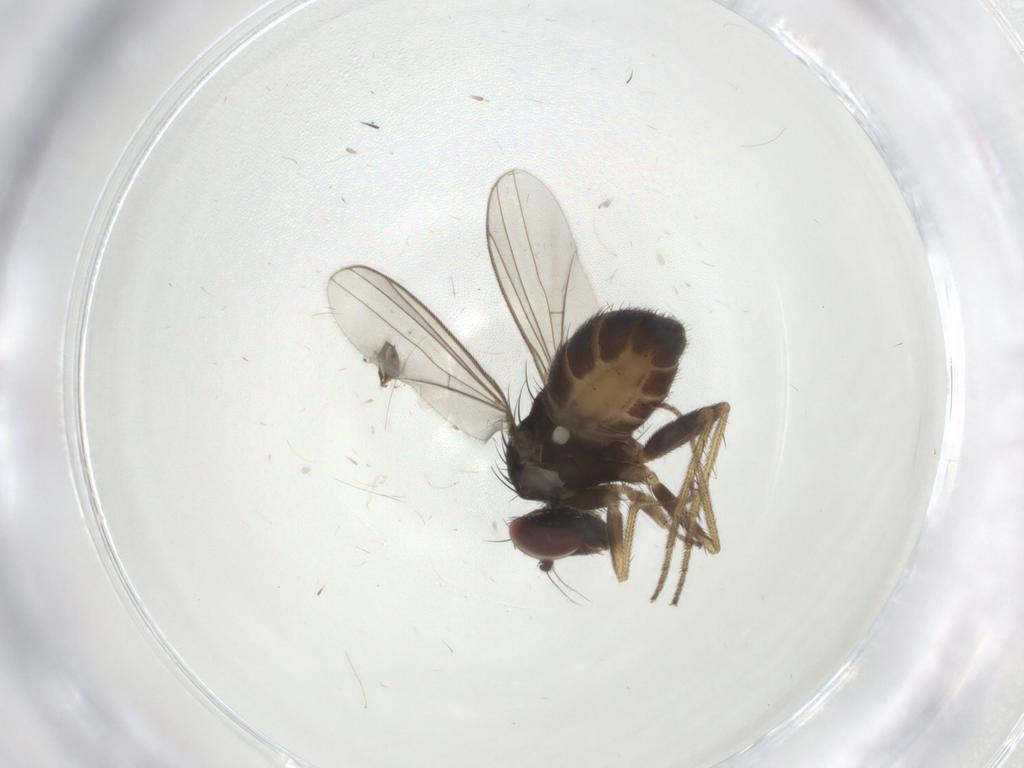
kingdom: Animalia
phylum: Arthropoda
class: Insecta
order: Diptera
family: Dolichopodidae
